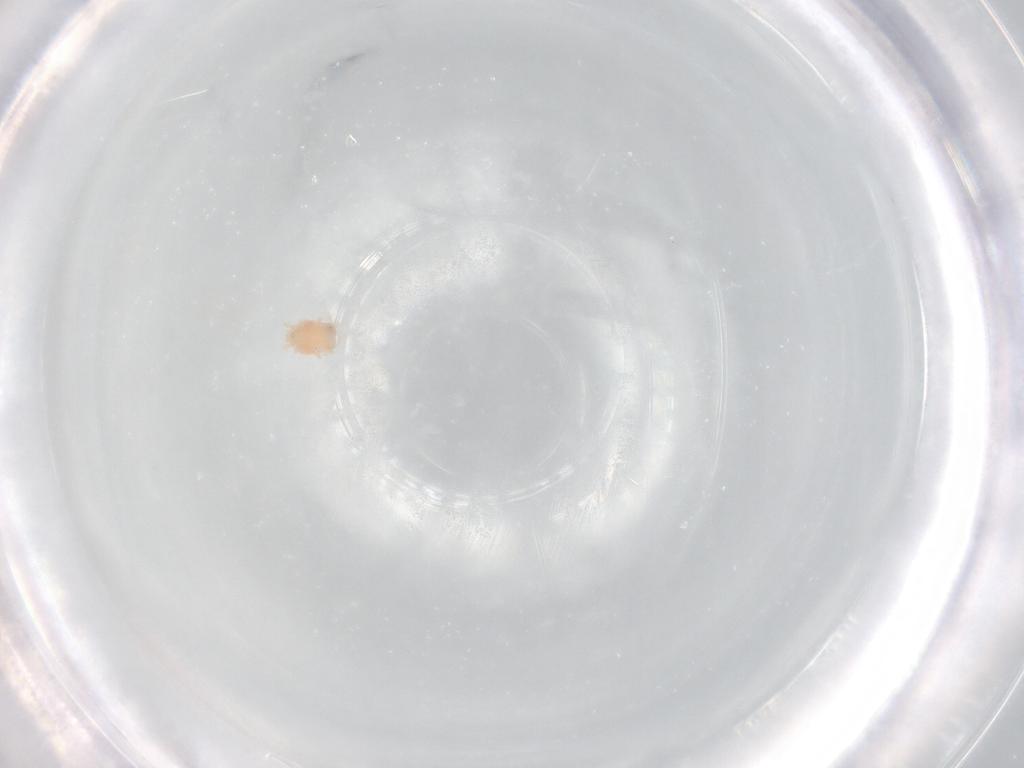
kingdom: Animalia
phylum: Arthropoda
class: Arachnida
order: Trombidiformes
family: Stigmaeidae
